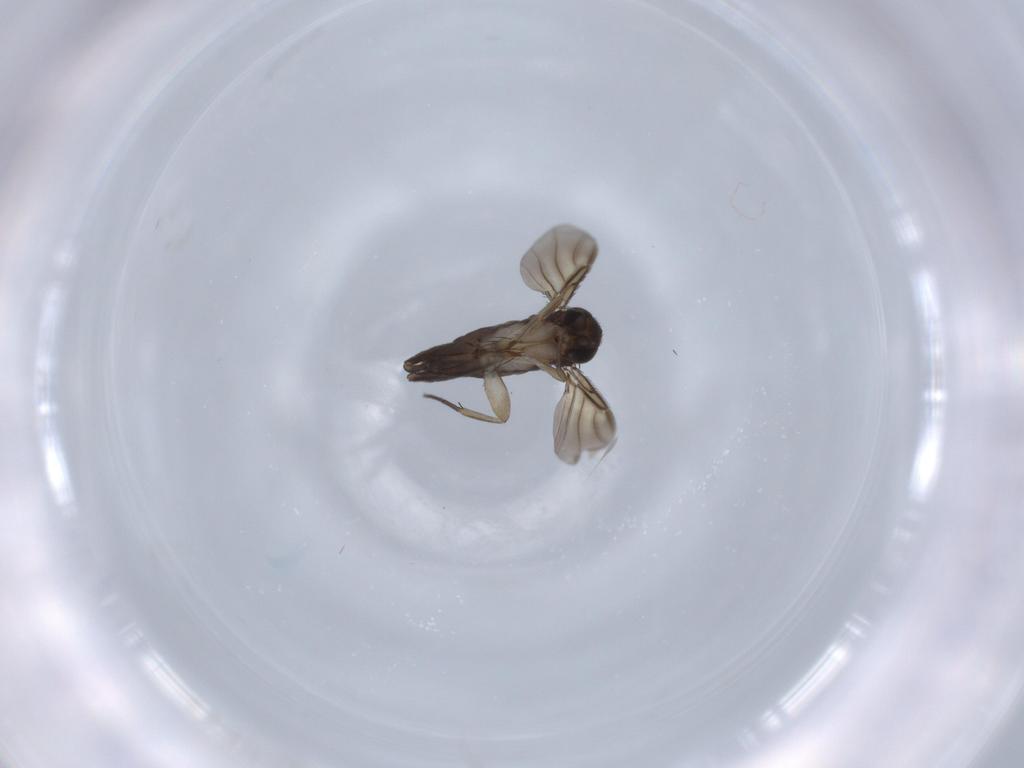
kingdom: Animalia
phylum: Arthropoda
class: Insecta
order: Diptera
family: Phoridae
